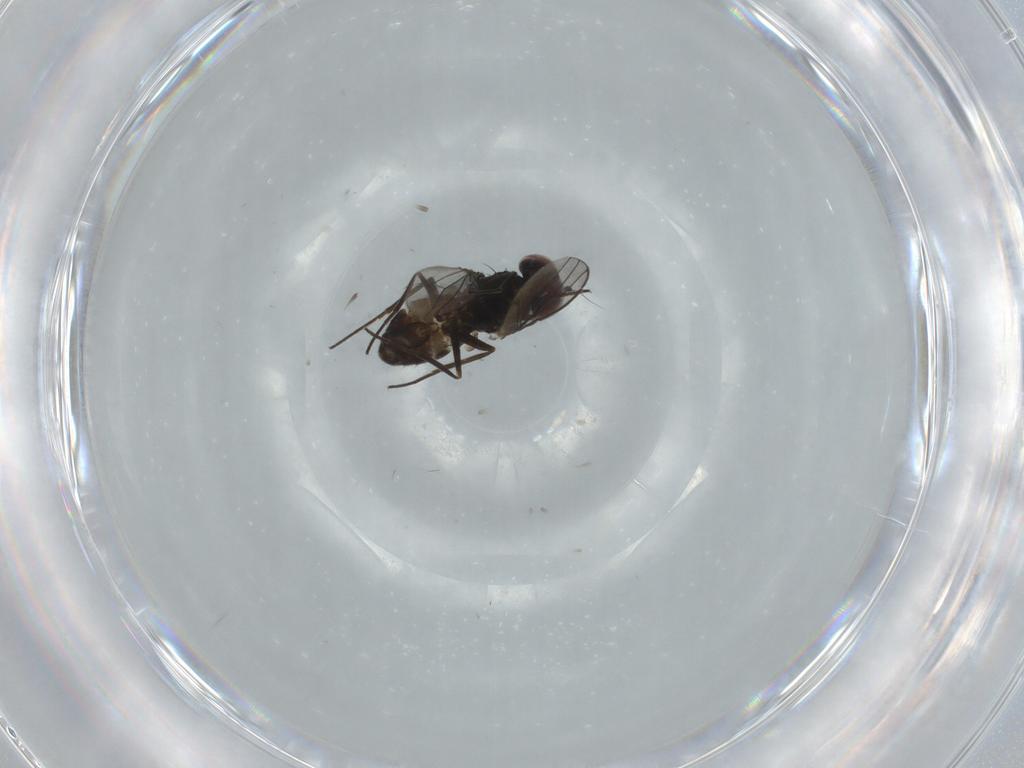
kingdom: Animalia
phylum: Arthropoda
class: Insecta
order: Diptera
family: Dolichopodidae
